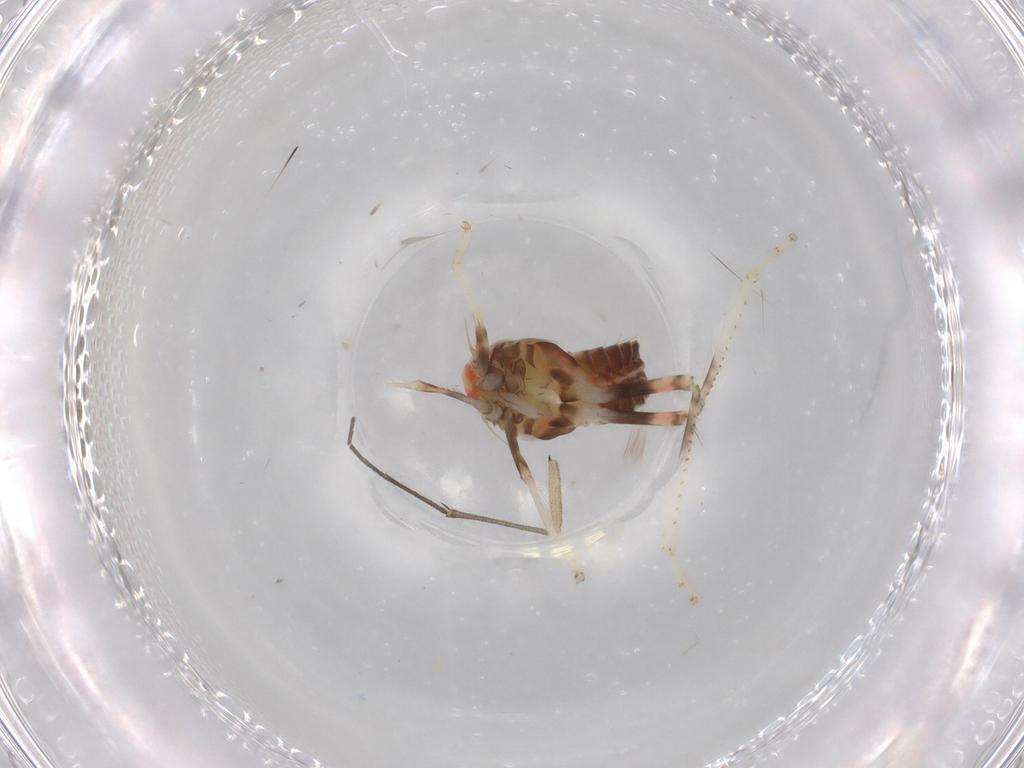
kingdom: Animalia
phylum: Arthropoda
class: Insecta
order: Hemiptera
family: Cicadellidae
